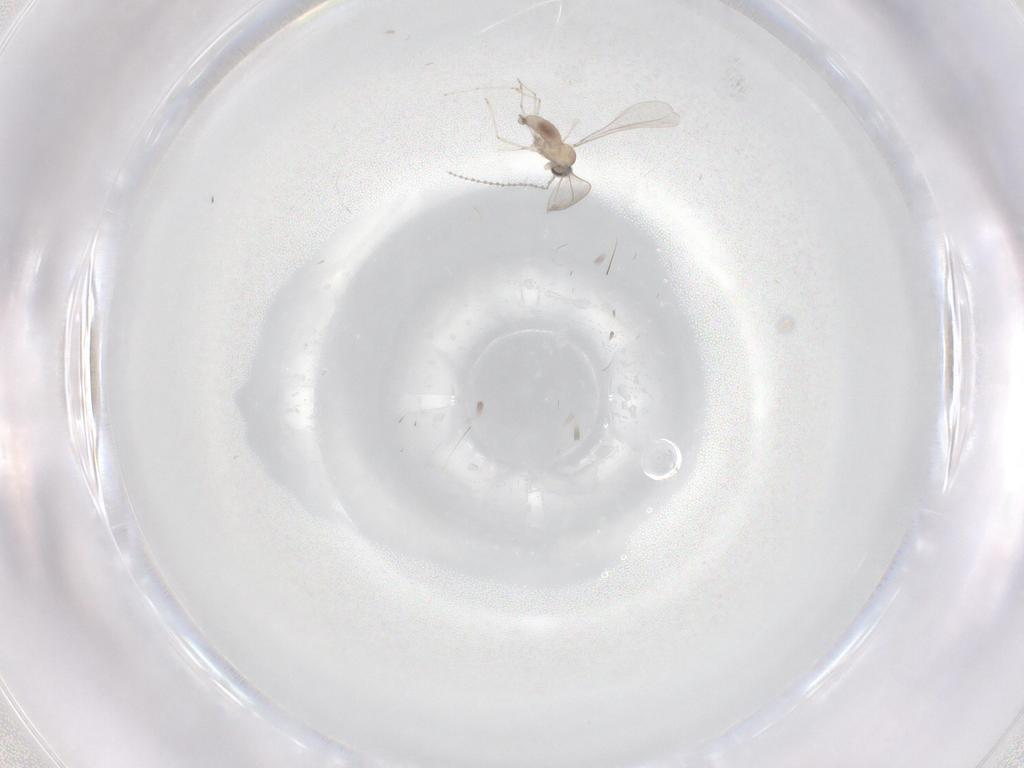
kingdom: Animalia
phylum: Arthropoda
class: Insecta
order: Diptera
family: Cecidomyiidae
